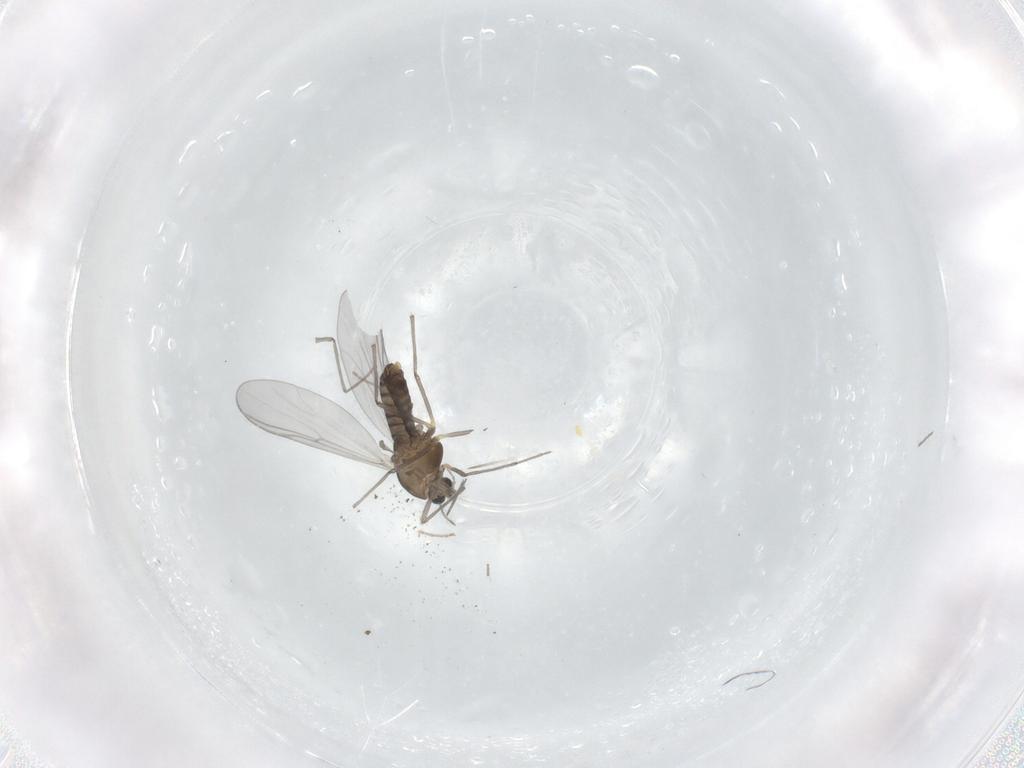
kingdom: Animalia
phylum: Arthropoda
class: Insecta
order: Diptera
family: Chironomidae
